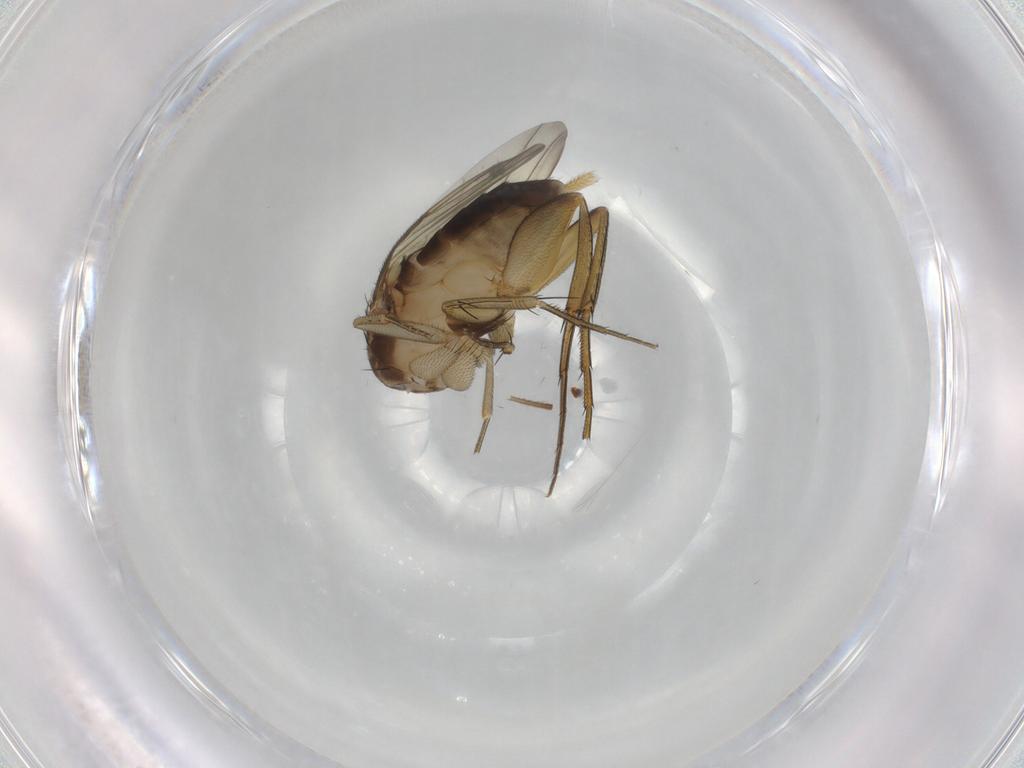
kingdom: Animalia
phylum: Arthropoda
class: Insecta
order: Diptera
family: Phoridae
